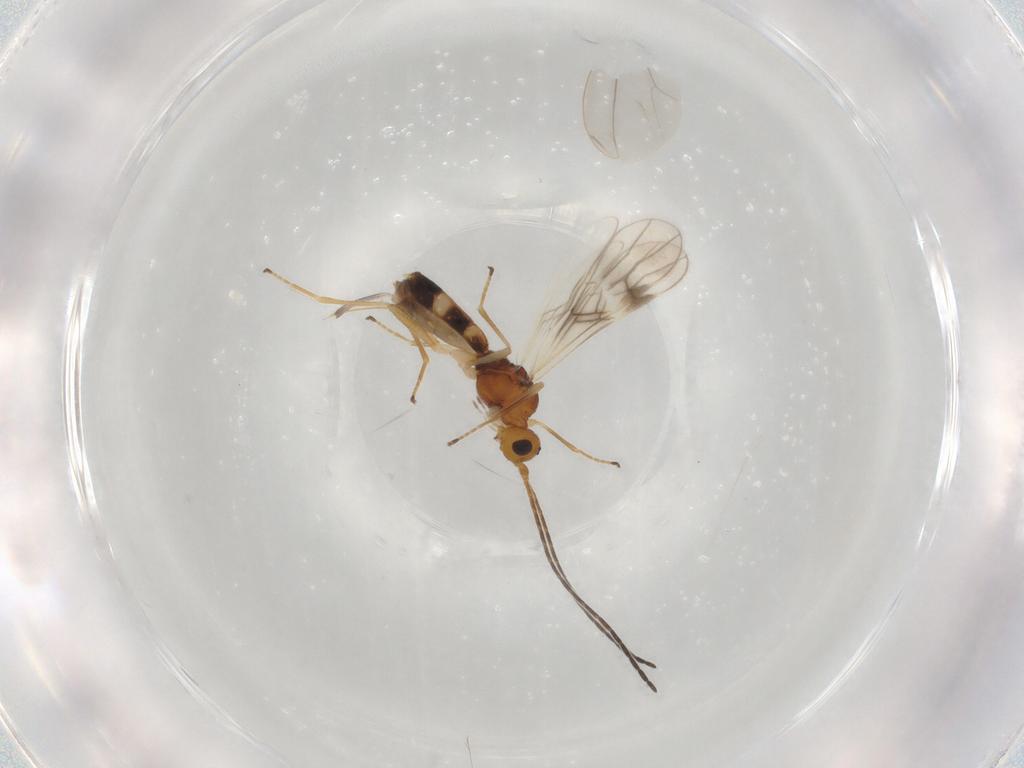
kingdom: Animalia
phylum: Arthropoda
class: Insecta
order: Hymenoptera
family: Braconidae
